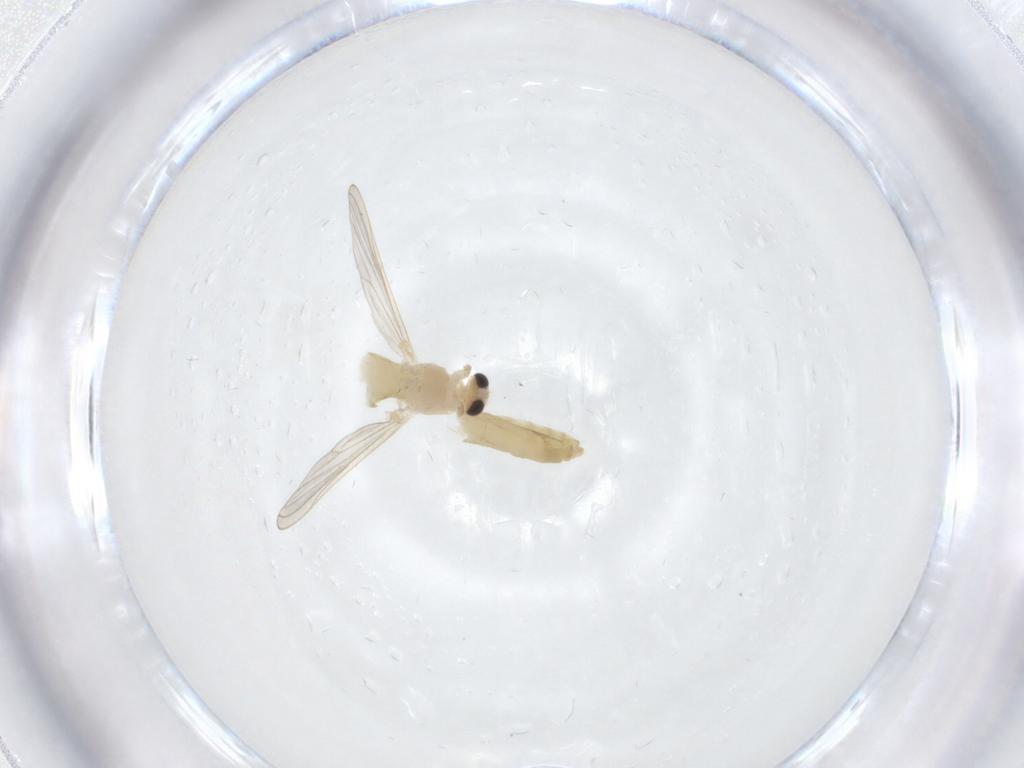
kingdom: Animalia
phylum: Arthropoda
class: Insecta
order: Diptera
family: Chironomidae
